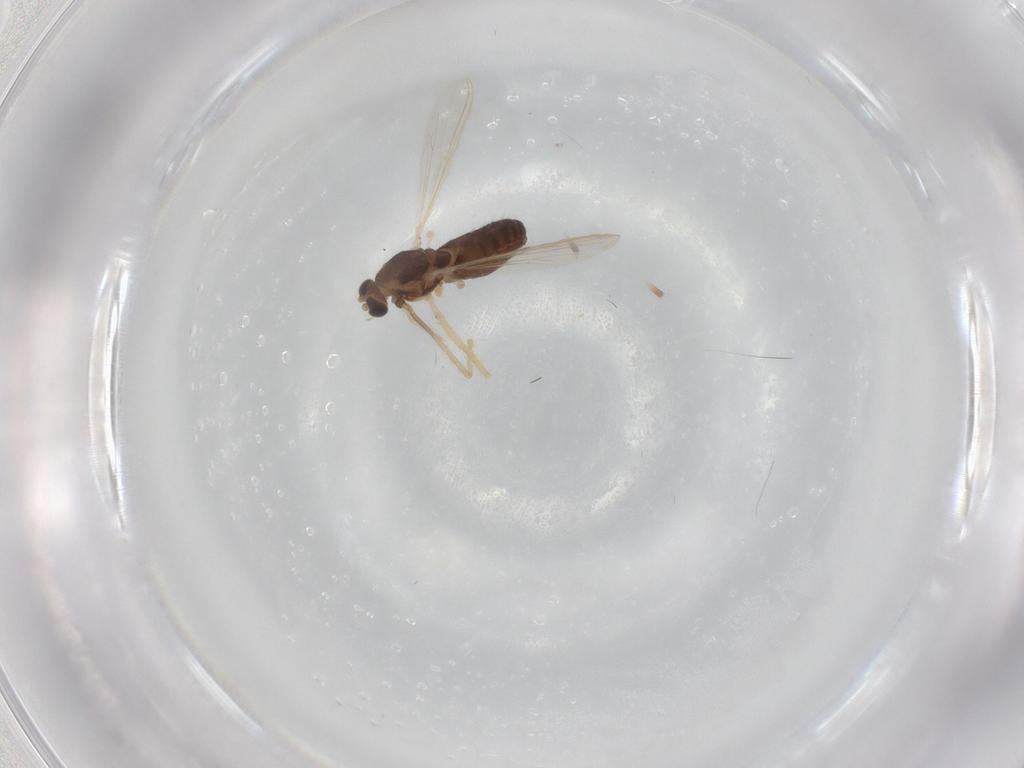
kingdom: Animalia
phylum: Arthropoda
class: Insecta
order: Diptera
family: Chironomidae
